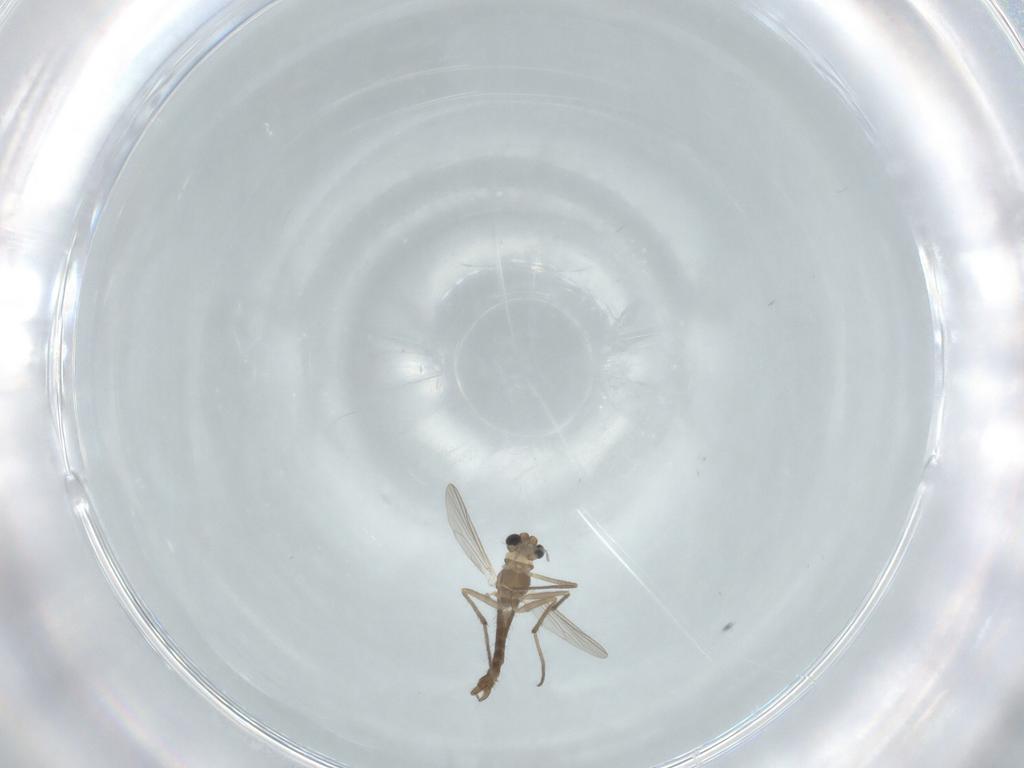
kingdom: Animalia
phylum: Arthropoda
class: Insecta
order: Diptera
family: Chironomidae
